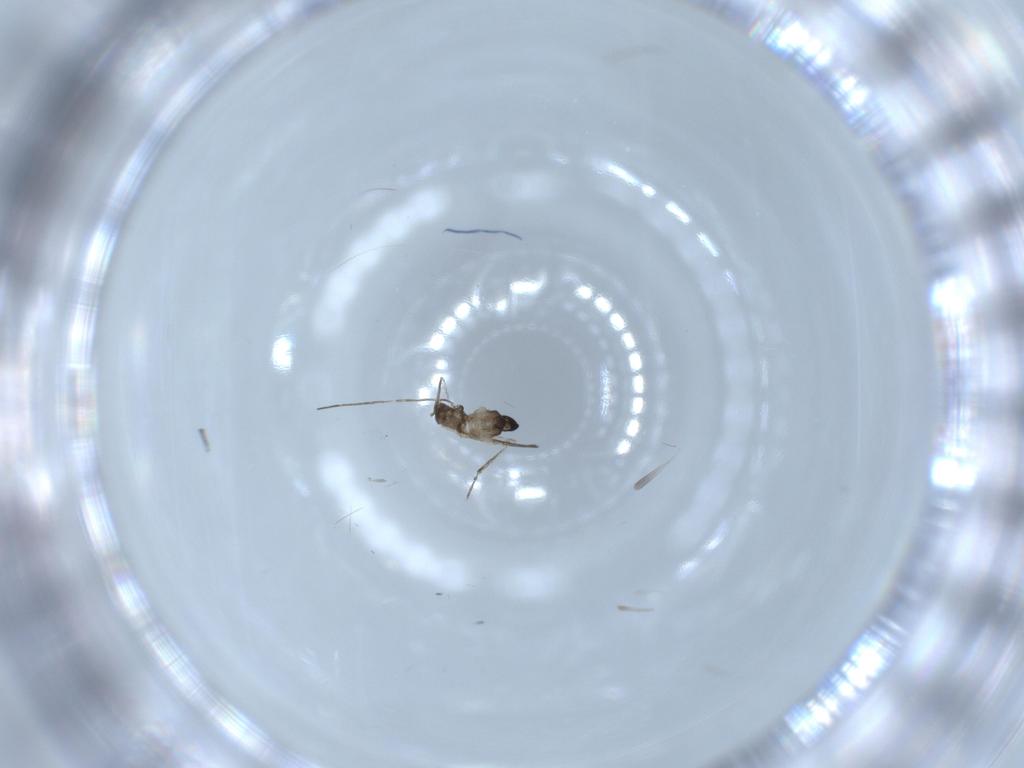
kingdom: Animalia
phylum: Arthropoda
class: Insecta
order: Diptera
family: Cecidomyiidae
